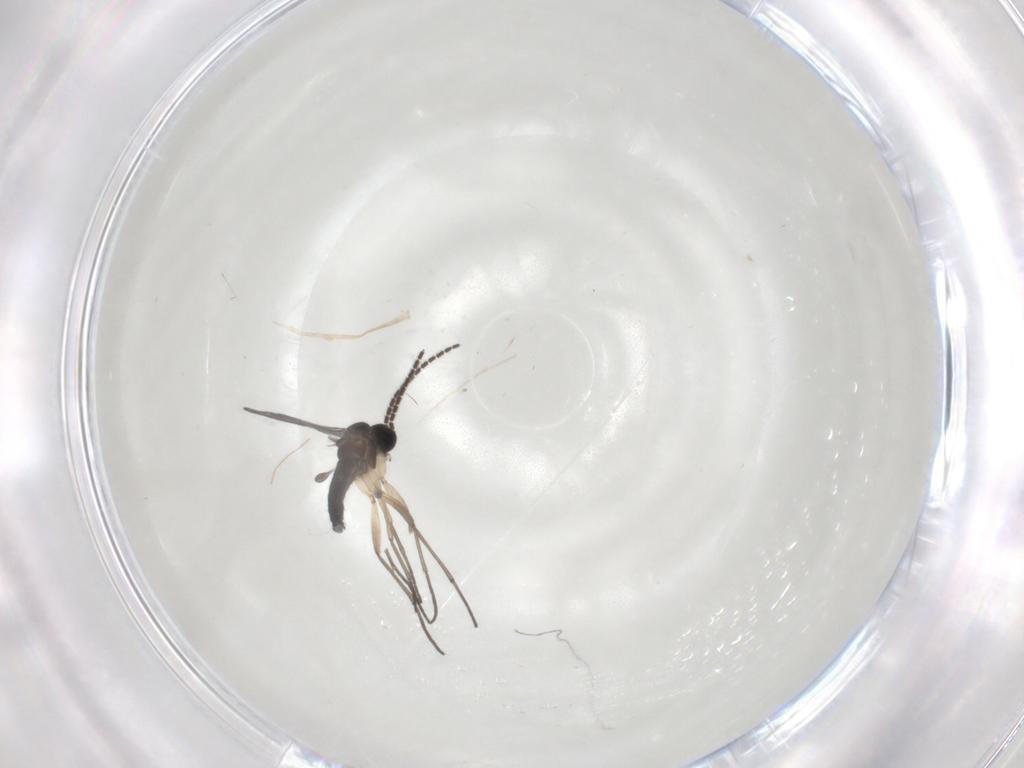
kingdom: Animalia
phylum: Arthropoda
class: Insecta
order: Diptera
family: Sciaridae
